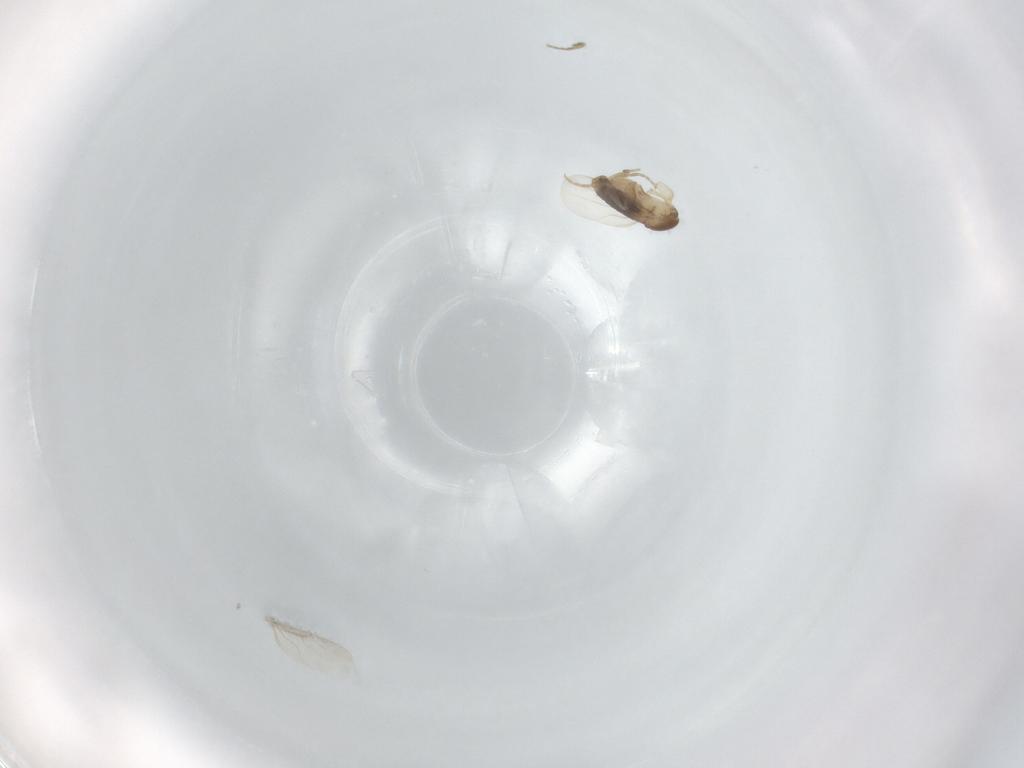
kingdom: Animalia
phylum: Arthropoda
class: Insecta
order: Diptera
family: Phoridae
